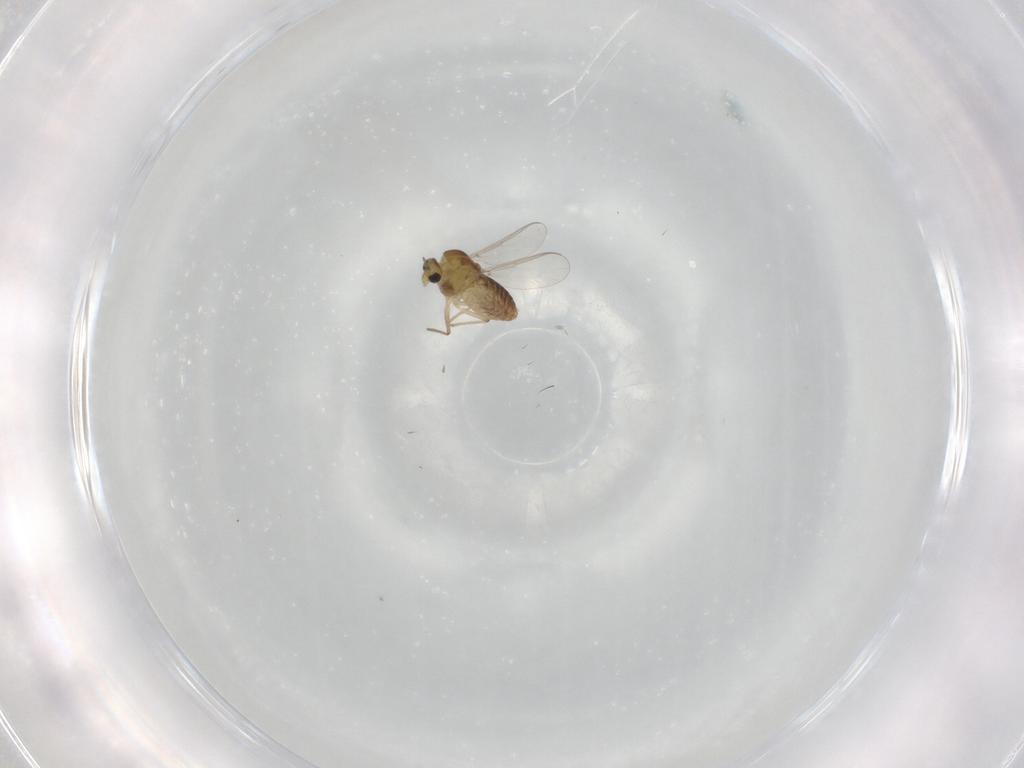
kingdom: Animalia
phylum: Arthropoda
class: Insecta
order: Diptera
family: Chironomidae
